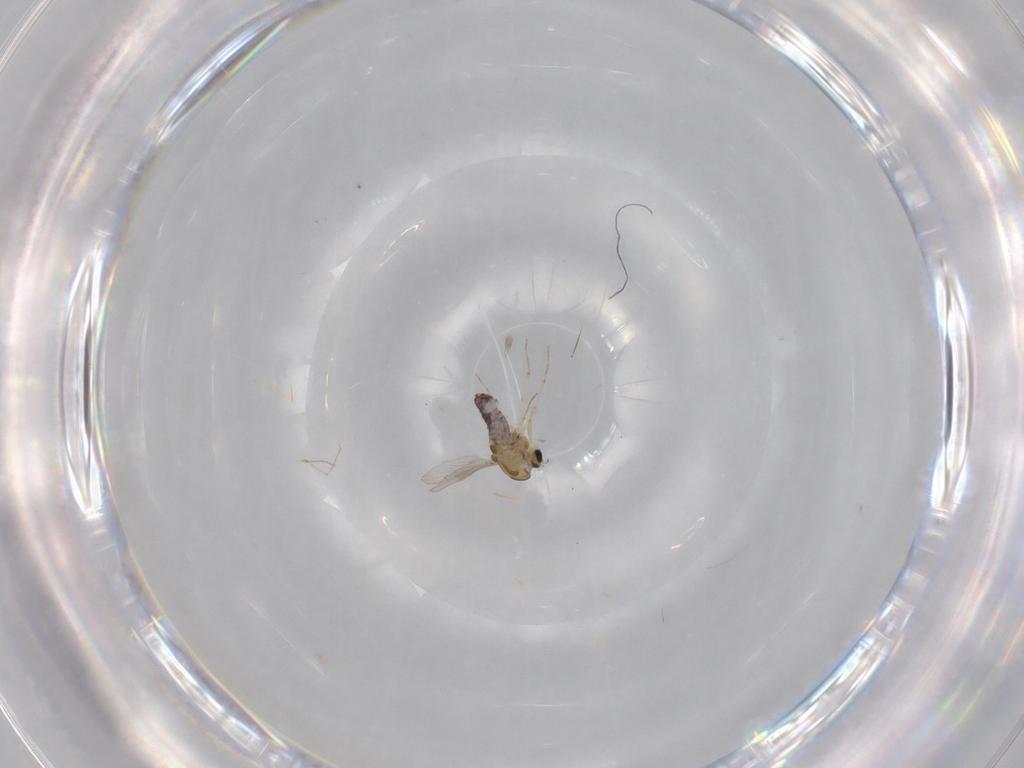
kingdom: Animalia
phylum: Arthropoda
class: Insecta
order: Diptera
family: Chironomidae
